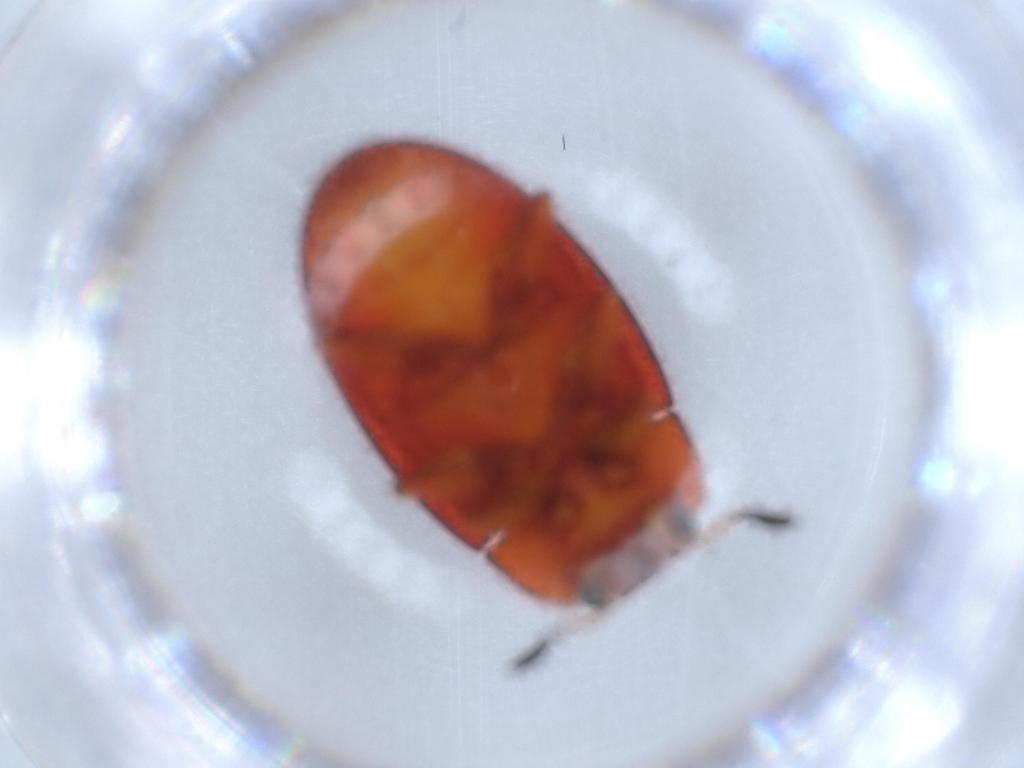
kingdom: Animalia
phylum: Arthropoda
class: Insecta
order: Coleoptera
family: Erotylidae
